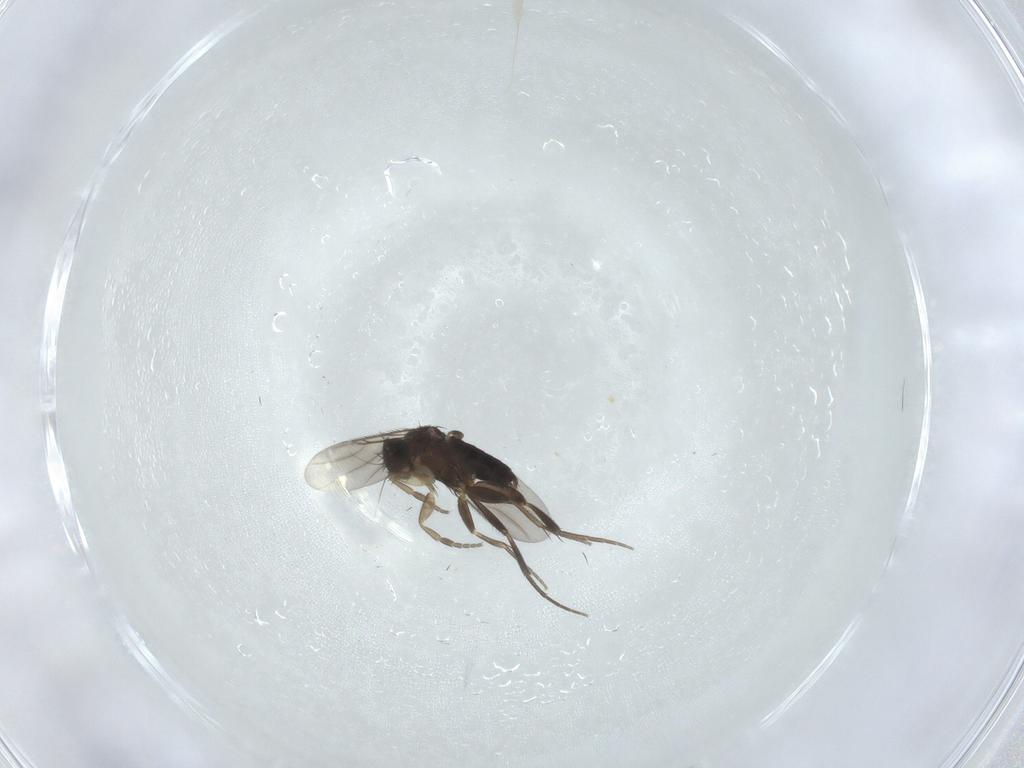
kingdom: Animalia
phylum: Arthropoda
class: Insecta
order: Diptera
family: Phoridae
